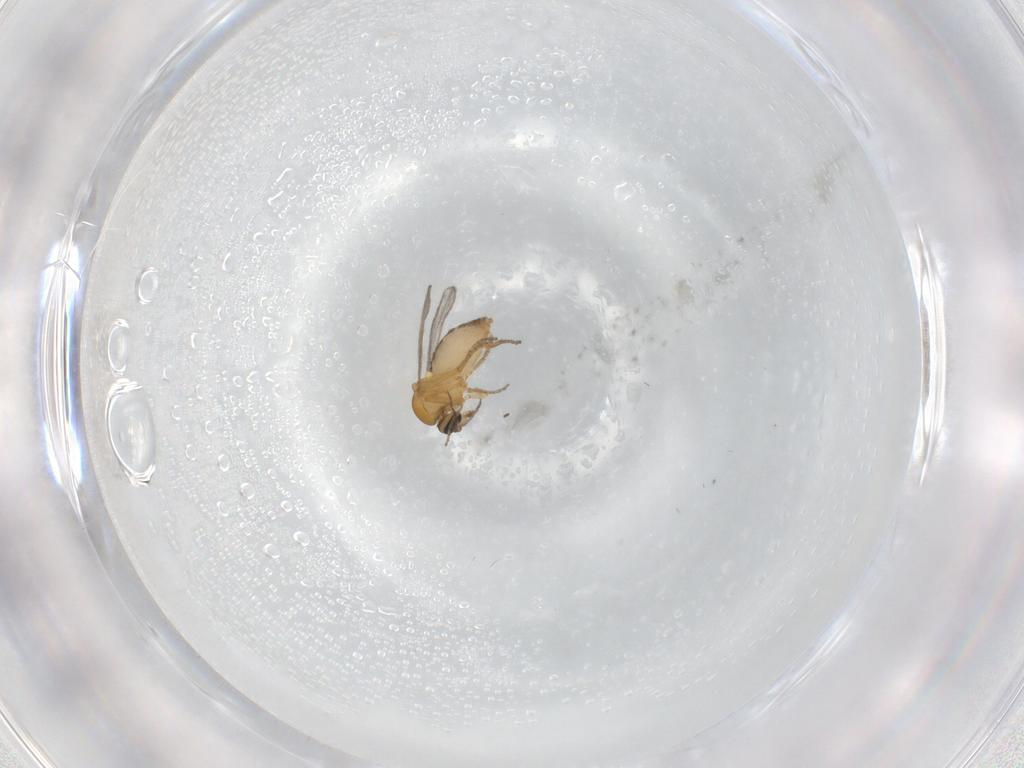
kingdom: Animalia
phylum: Arthropoda
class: Insecta
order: Diptera
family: Ceratopogonidae
